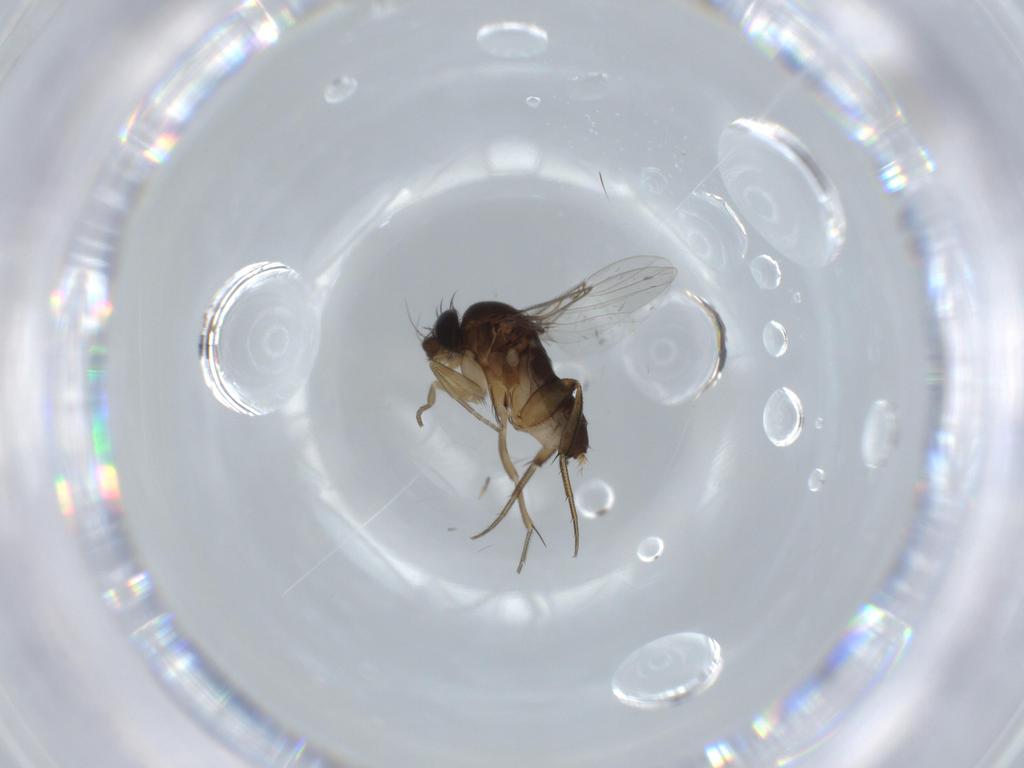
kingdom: Animalia
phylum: Arthropoda
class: Insecta
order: Diptera
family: Phoridae
